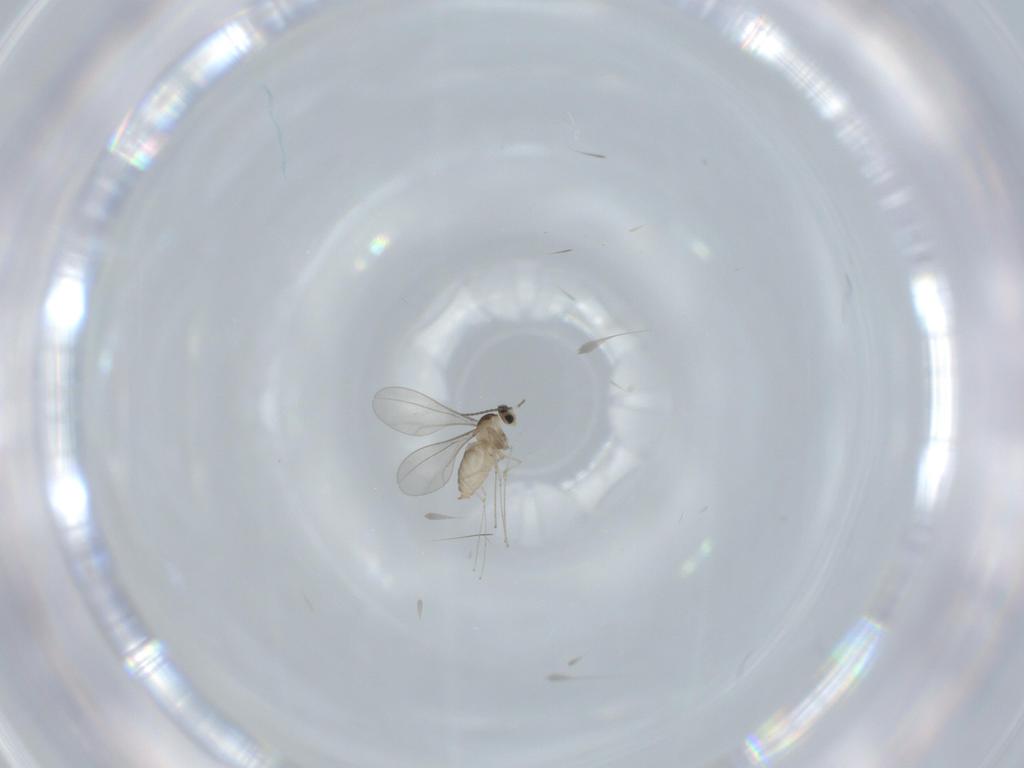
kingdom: Animalia
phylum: Arthropoda
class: Insecta
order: Diptera
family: Cecidomyiidae
